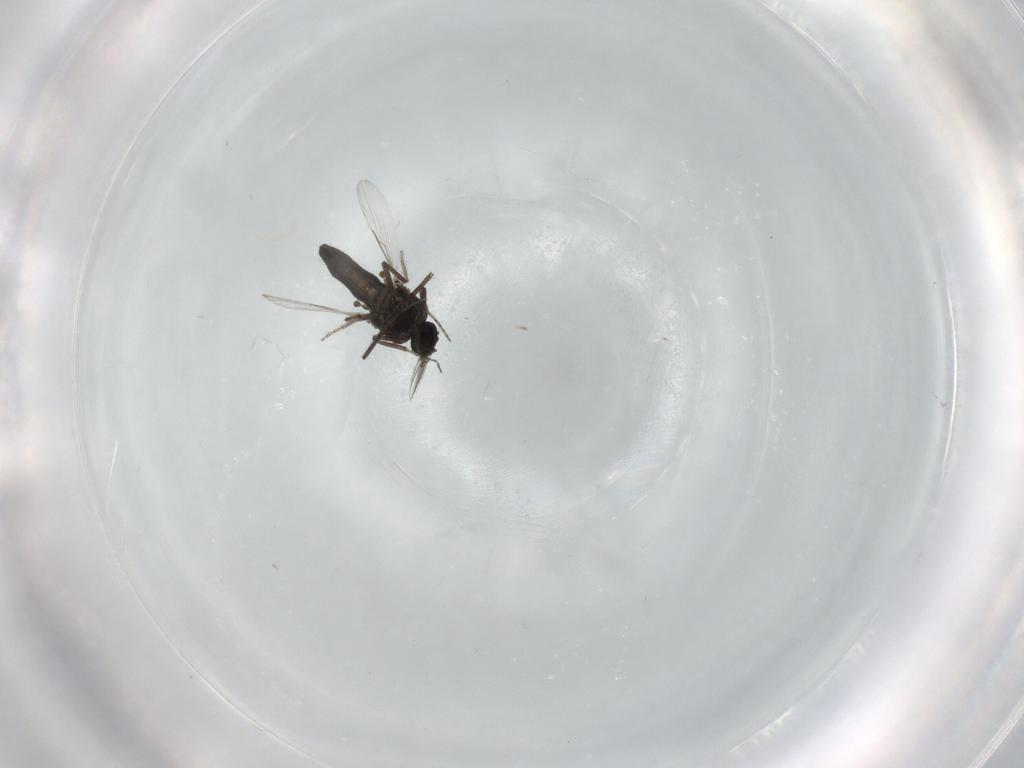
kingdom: Animalia
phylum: Arthropoda
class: Insecta
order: Diptera
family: Ceratopogonidae
